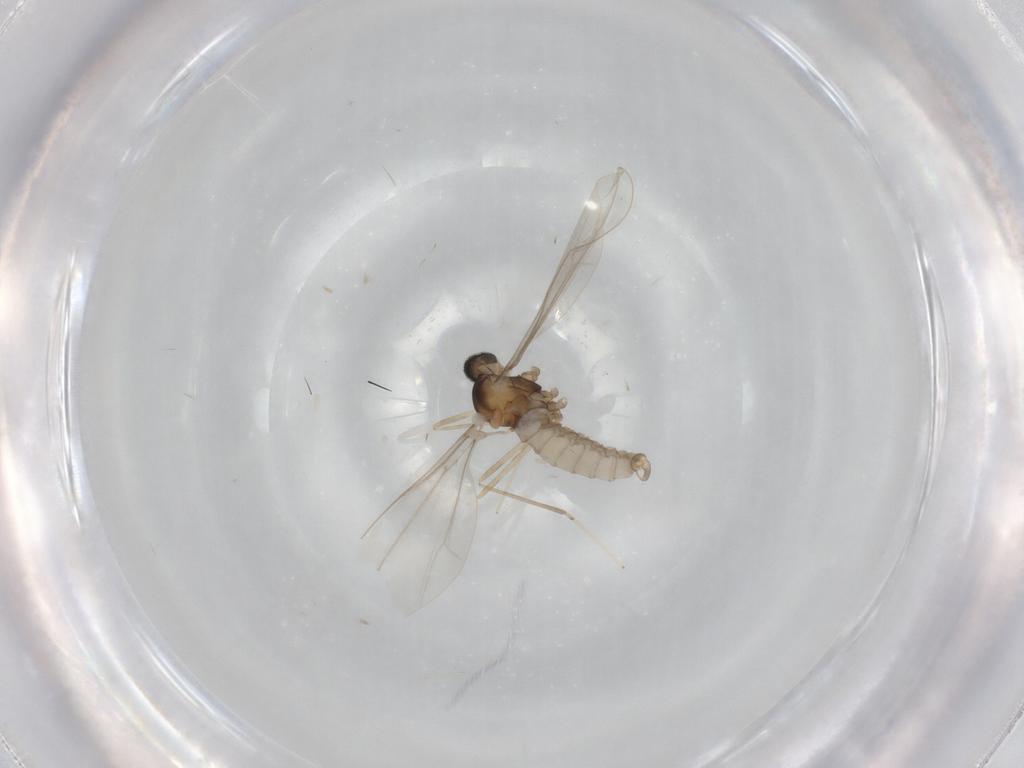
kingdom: Animalia
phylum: Arthropoda
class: Insecta
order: Diptera
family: Cecidomyiidae
